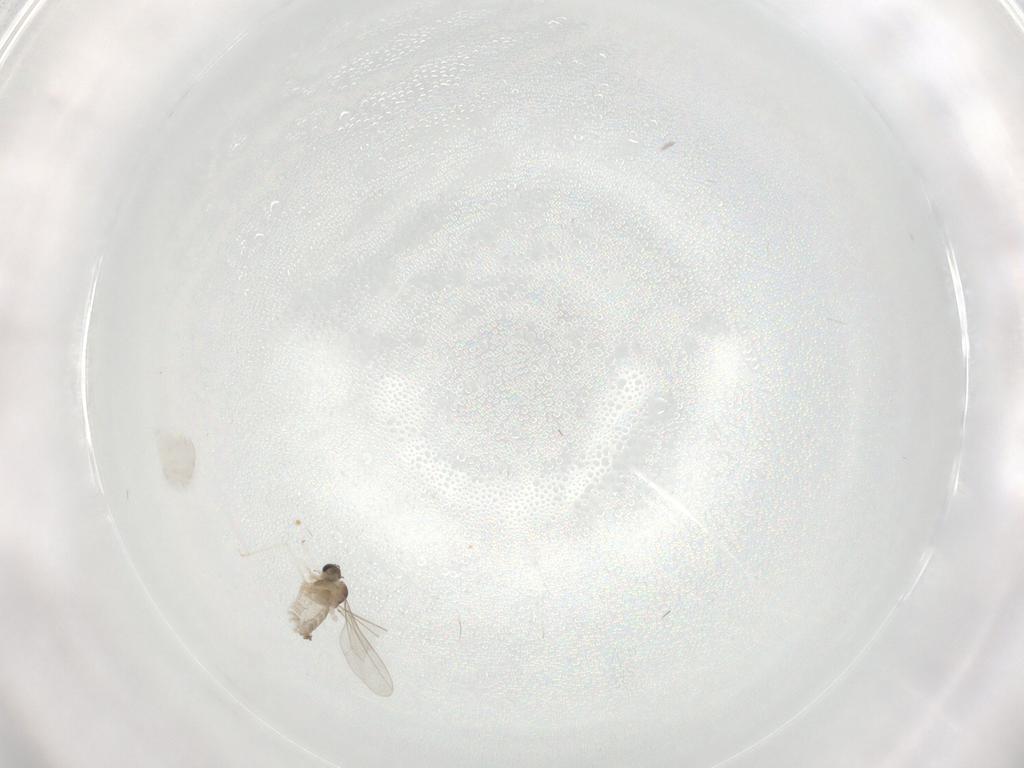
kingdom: Animalia
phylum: Arthropoda
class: Insecta
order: Diptera
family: Cecidomyiidae
